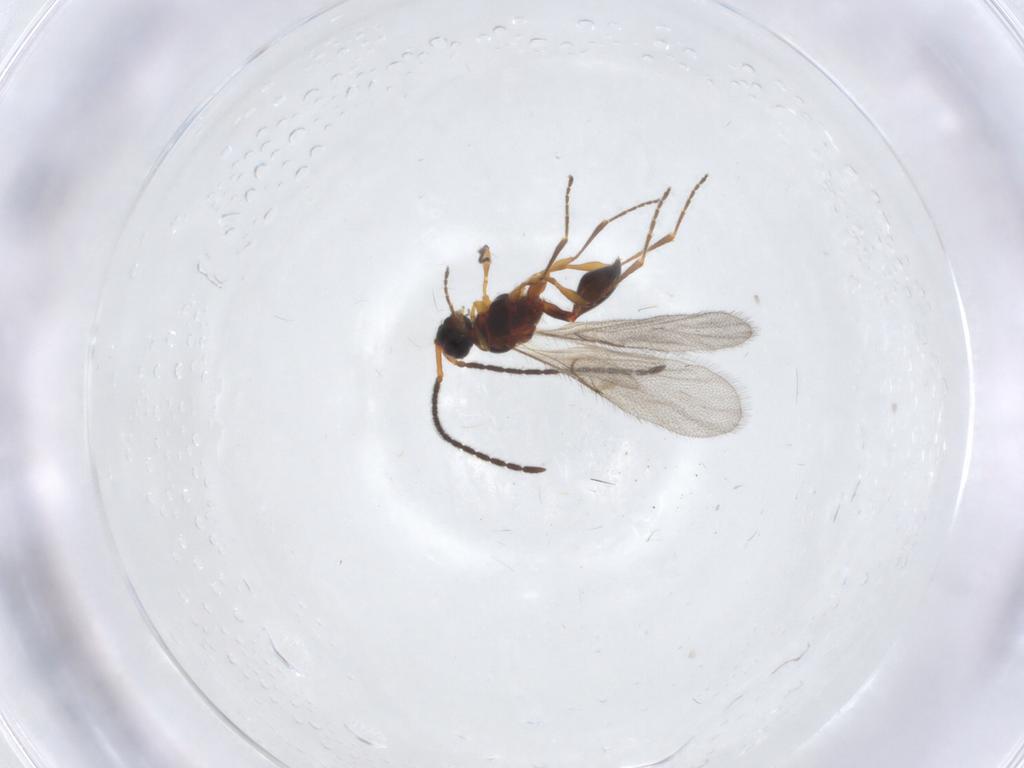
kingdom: Animalia
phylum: Arthropoda
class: Insecta
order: Hymenoptera
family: Diapriidae
